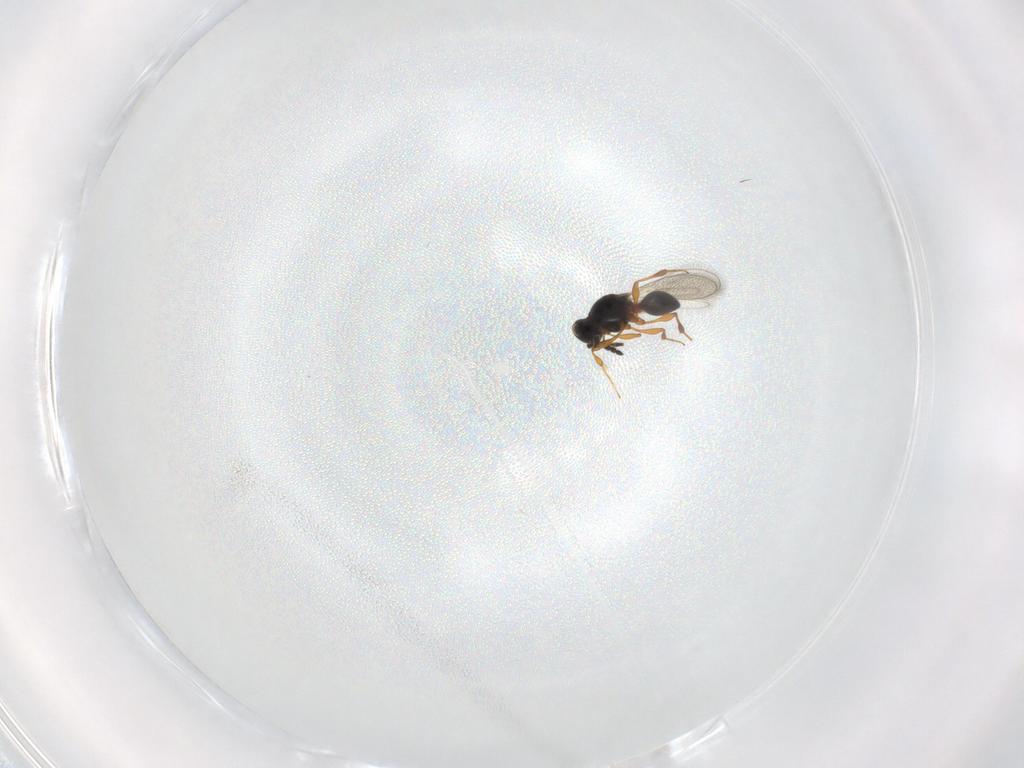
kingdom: Animalia
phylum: Arthropoda
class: Insecta
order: Hymenoptera
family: Platygastridae
